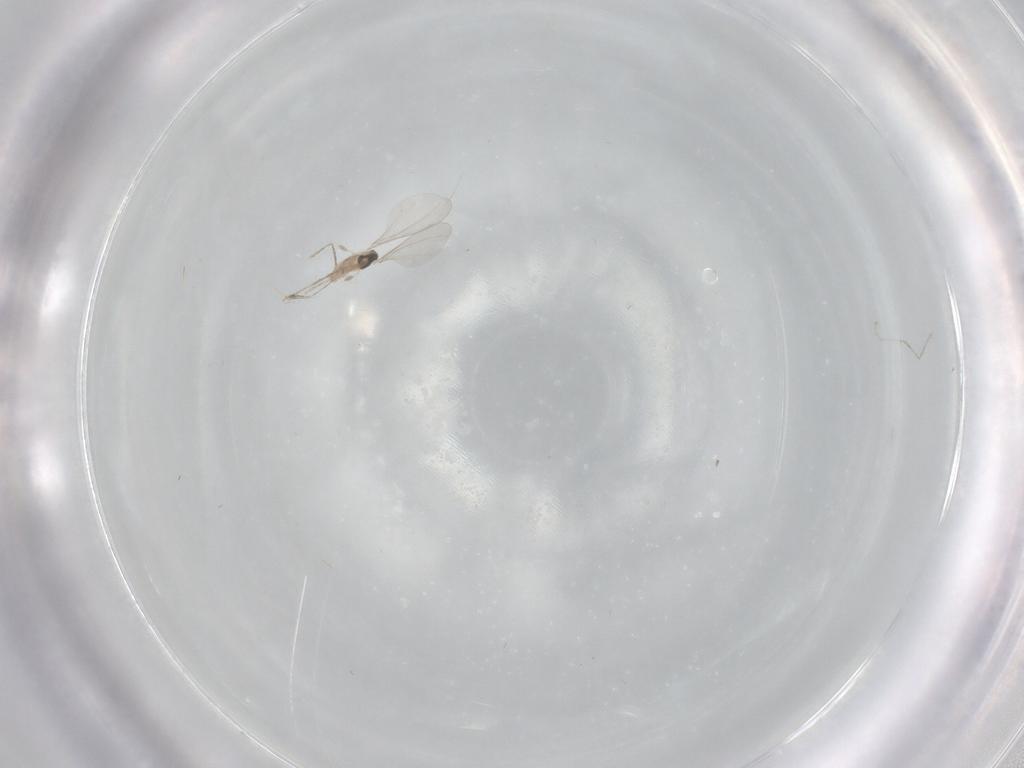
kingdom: Animalia
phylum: Arthropoda
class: Insecta
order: Diptera
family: Cecidomyiidae
